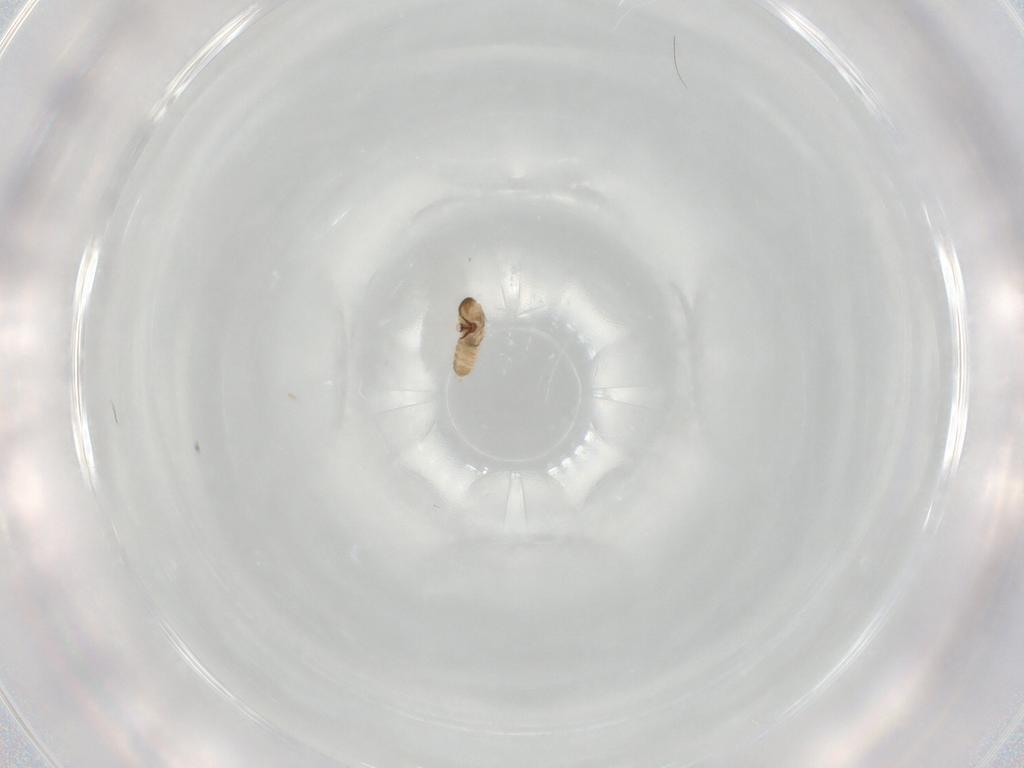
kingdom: Animalia
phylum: Arthropoda
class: Insecta
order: Diptera
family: Cecidomyiidae
